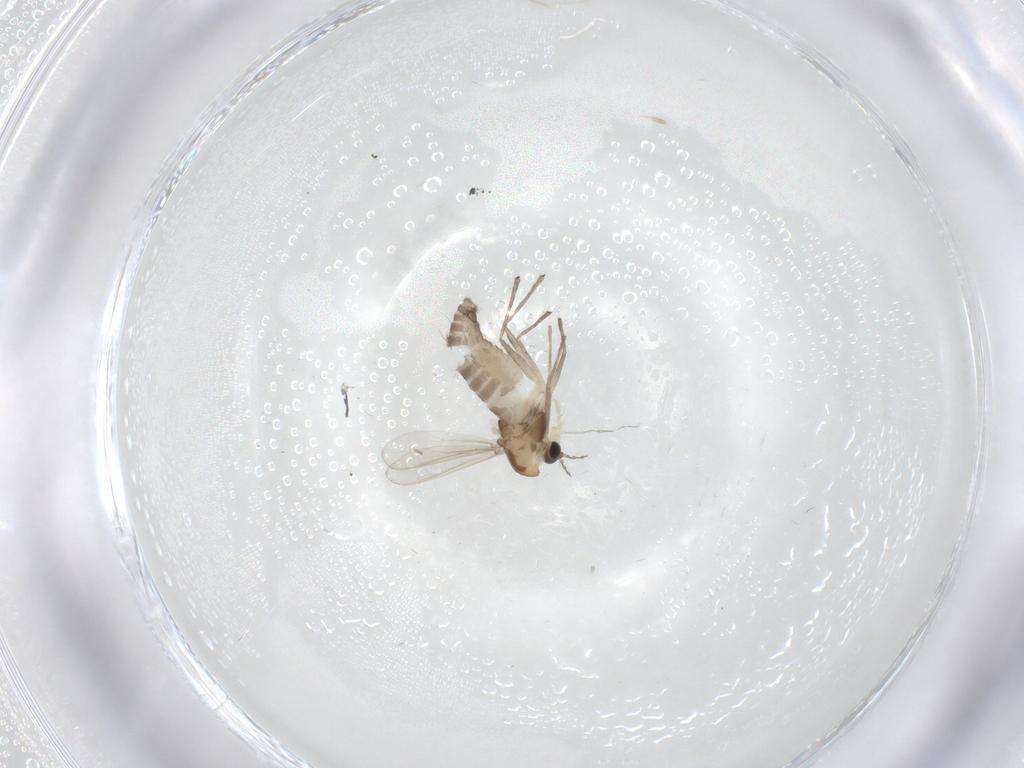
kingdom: Animalia
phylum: Arthropoda
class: Insecta
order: Diptera
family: Chironomidae
